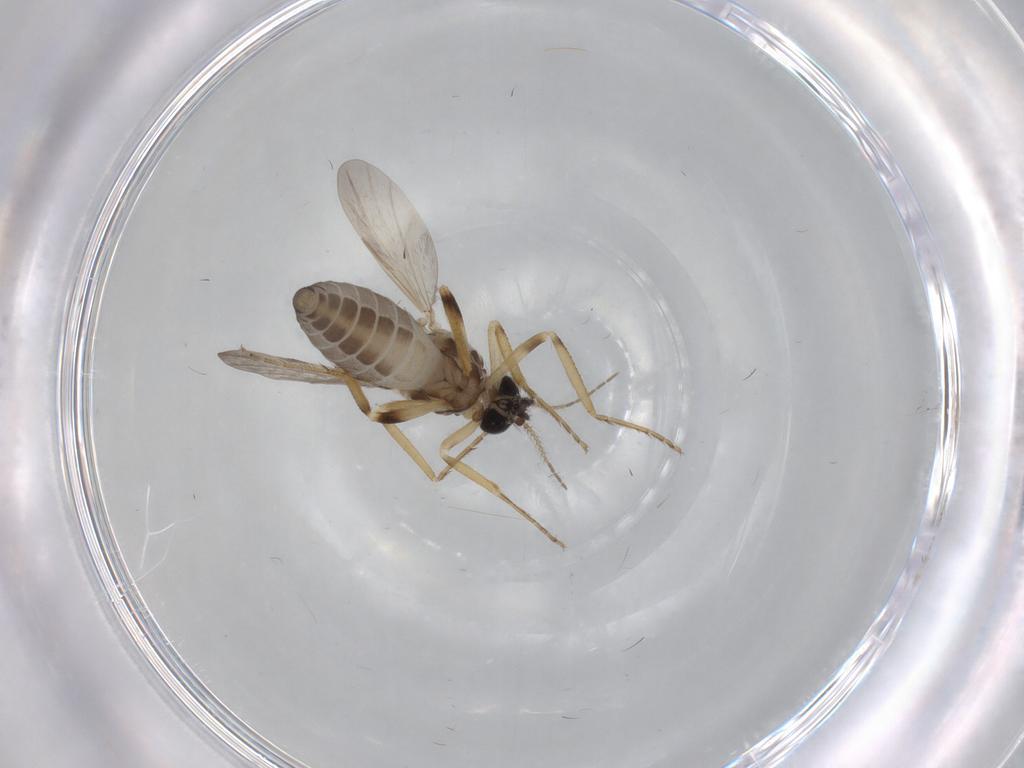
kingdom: Animalia
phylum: Arthropoda
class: Insecta
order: Diptera
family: Ceratopogonidae
